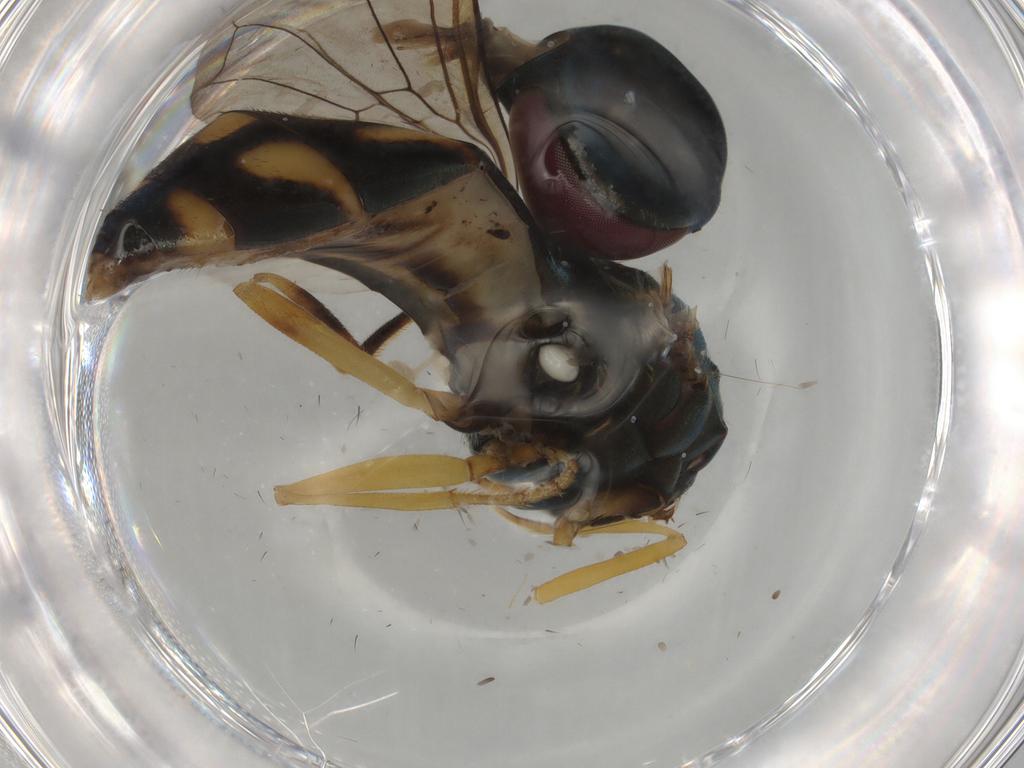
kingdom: Animalia
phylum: Arthropoda
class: Insecta
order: Diptera
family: Syrphidae
